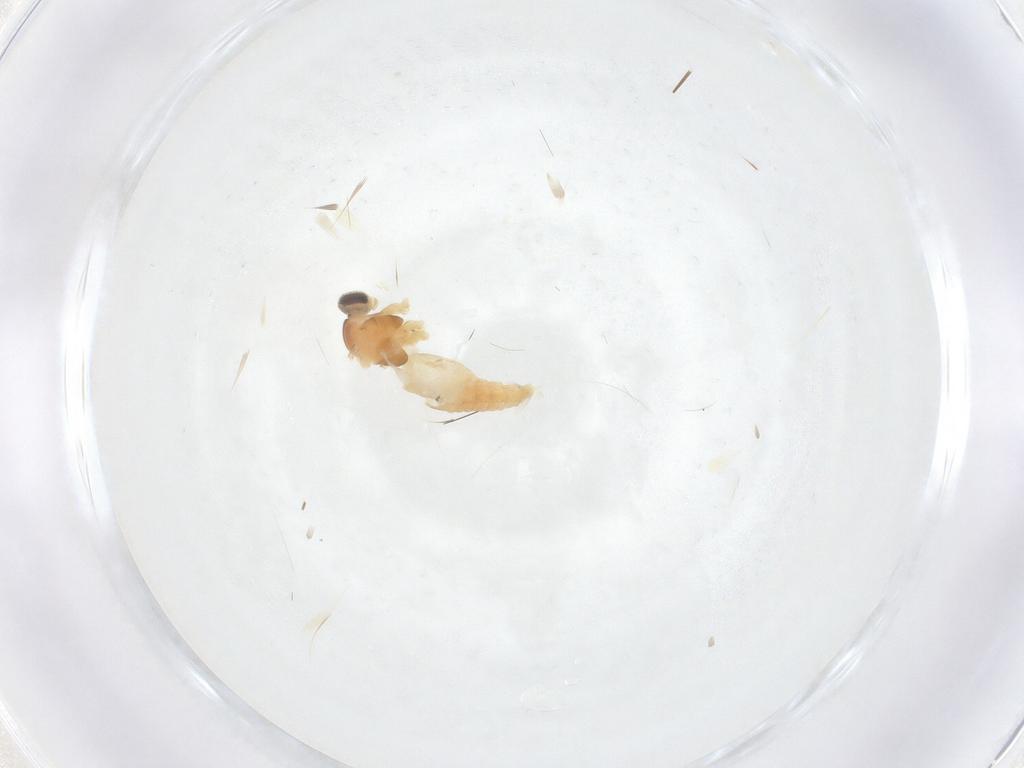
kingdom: Animalia
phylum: Arthropoda
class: Insecta
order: Diptera
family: Cecidomyiidae
